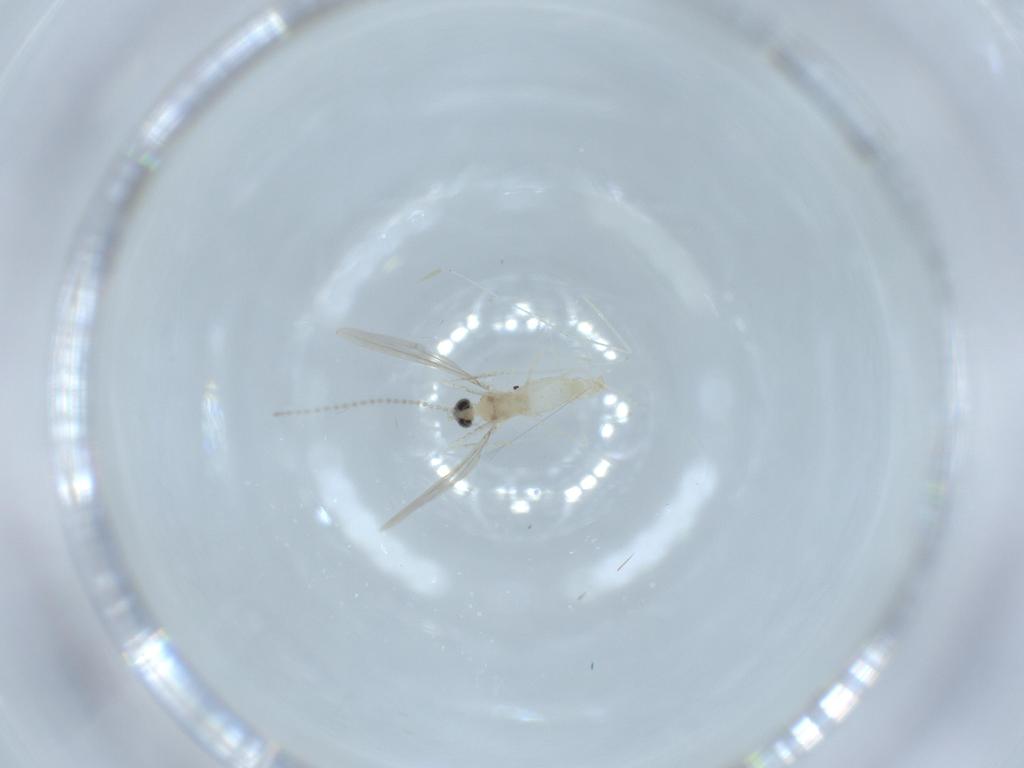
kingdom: Animalia
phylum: Arthropoda
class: Insecta
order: Diptera
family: Cecidomyiidae
